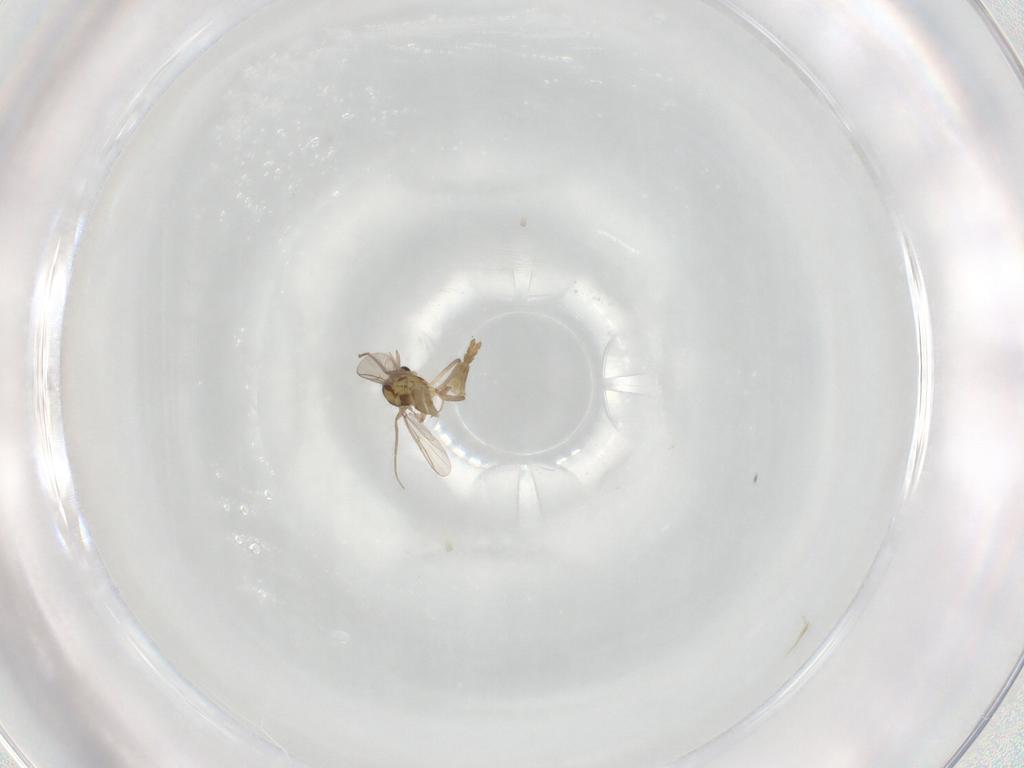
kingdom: Animalia
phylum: Arthropoda
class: Insecta
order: Diptera
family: Chironomidae
